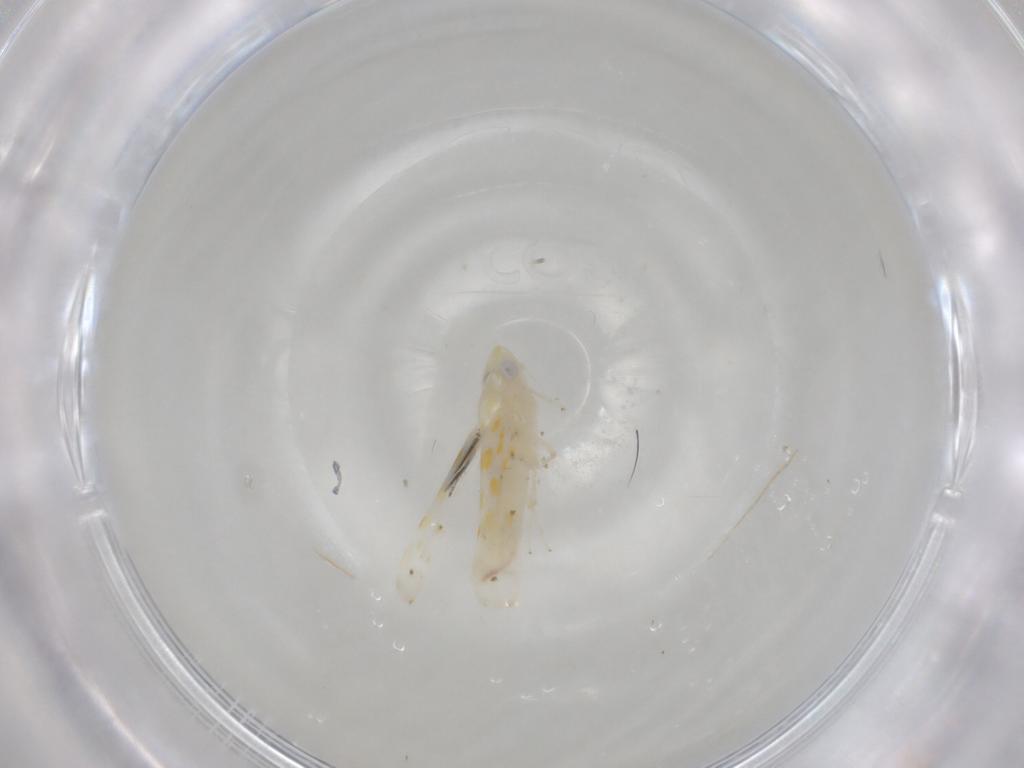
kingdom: Animalia
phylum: Arthropoda
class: Insecta
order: Hemiptera
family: Cicadellidae
